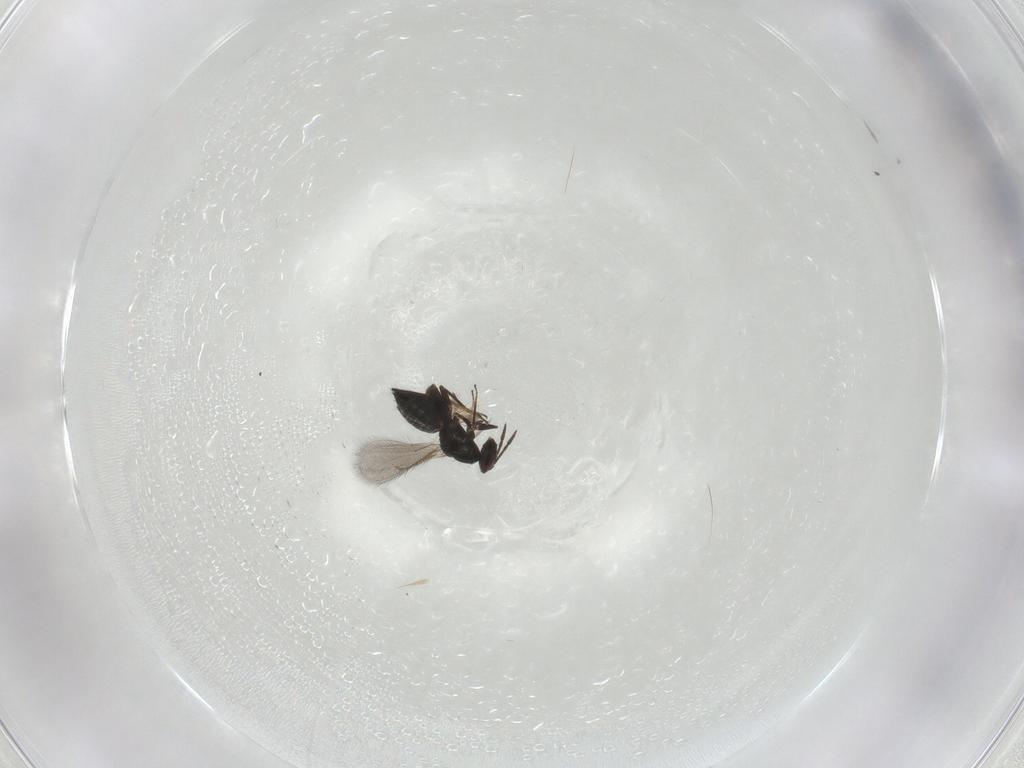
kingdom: Animalia
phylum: Arthropoda
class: Insecta
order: Hymenoptera
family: Eulophidae
